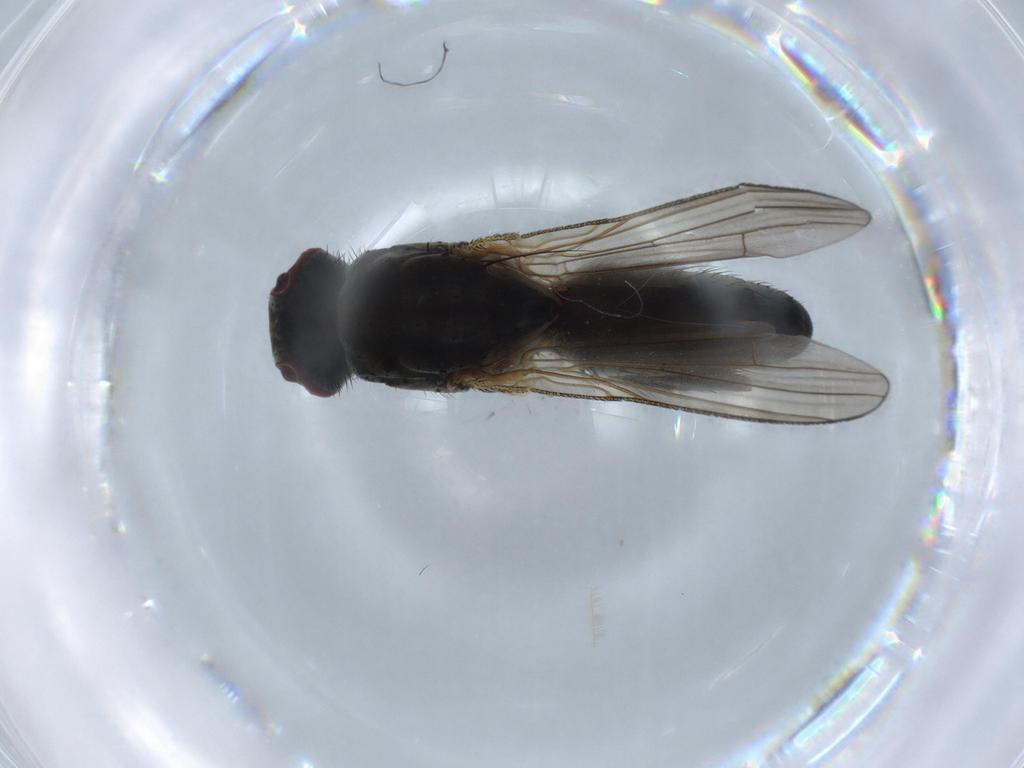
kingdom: Animalia
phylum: Arthropoda
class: Insecta
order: Diptera
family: Muscidae
